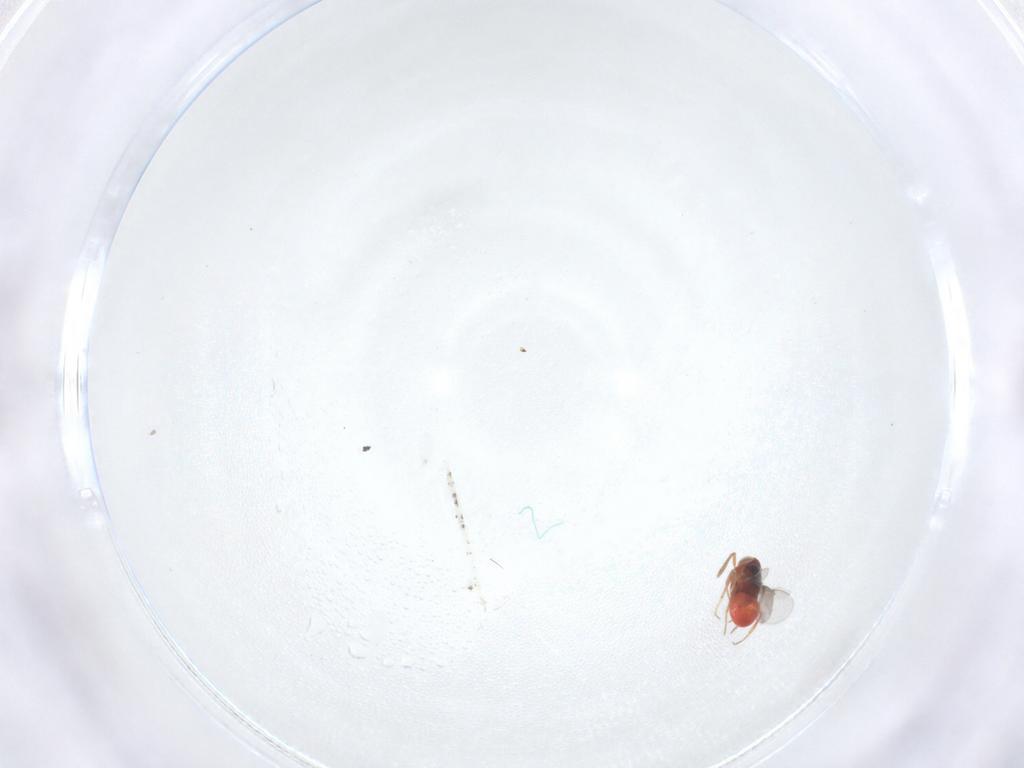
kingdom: Animalia
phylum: Arthropoda
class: Insecta
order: Hymenoptera
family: Encyrtidae
